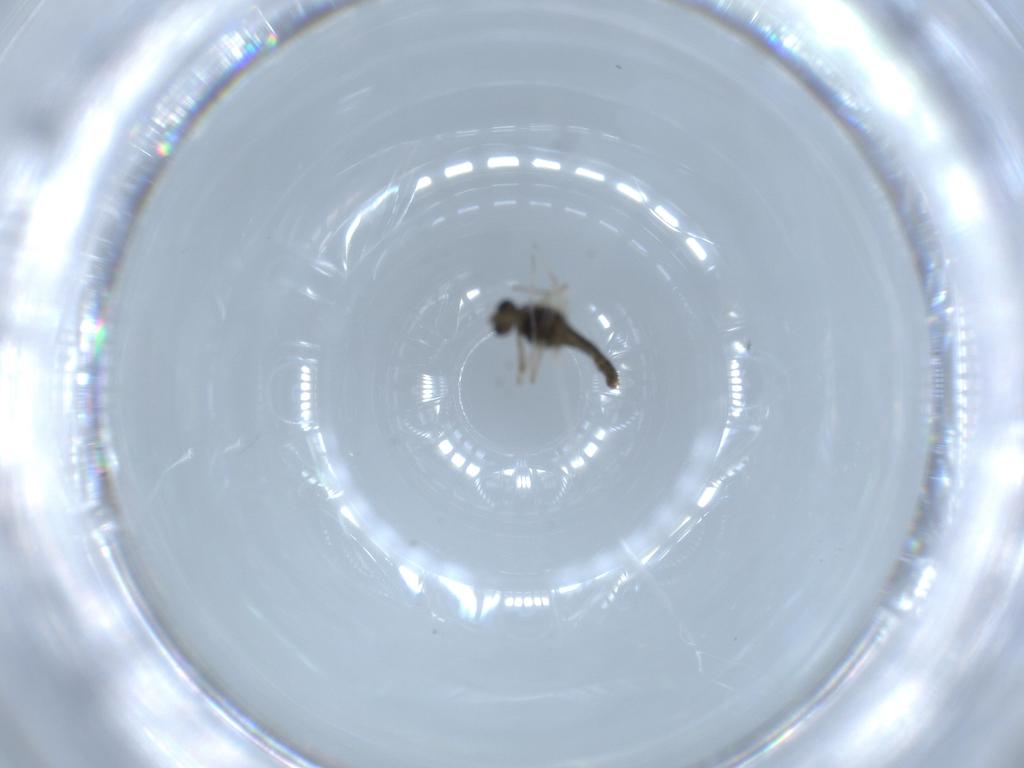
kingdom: Animalia
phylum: Arthropoda
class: Insecta
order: Diptera
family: Chironomidae
